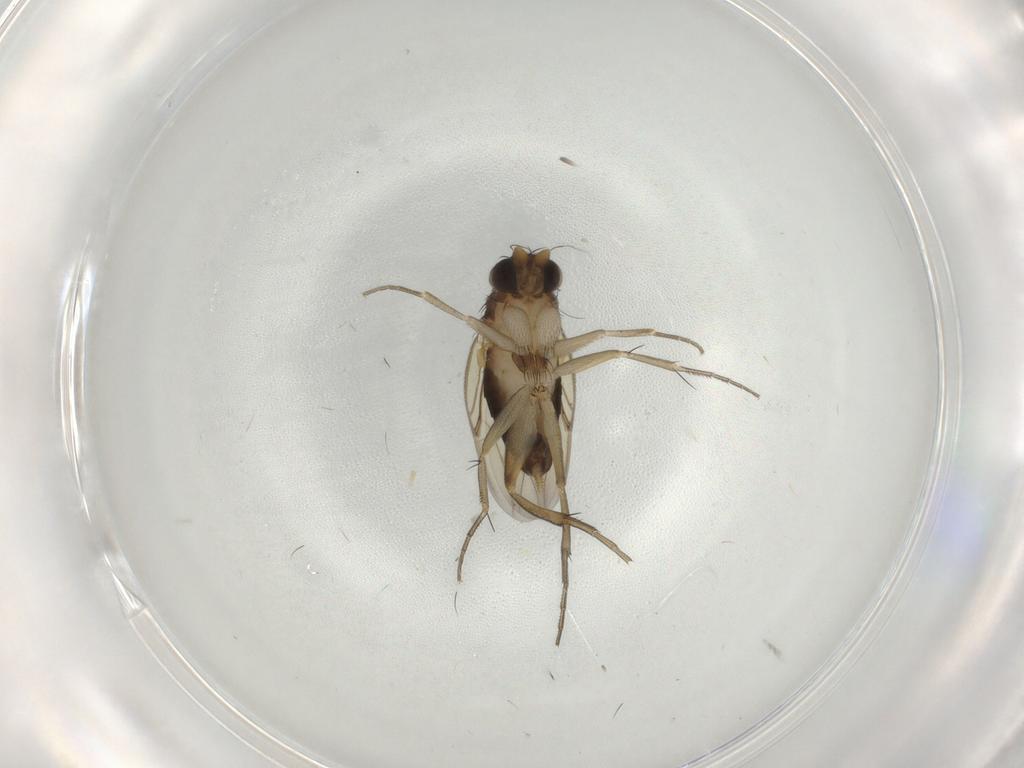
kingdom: Animalia
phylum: Arthropoda
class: Insecta
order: Diptera
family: Phoridae
